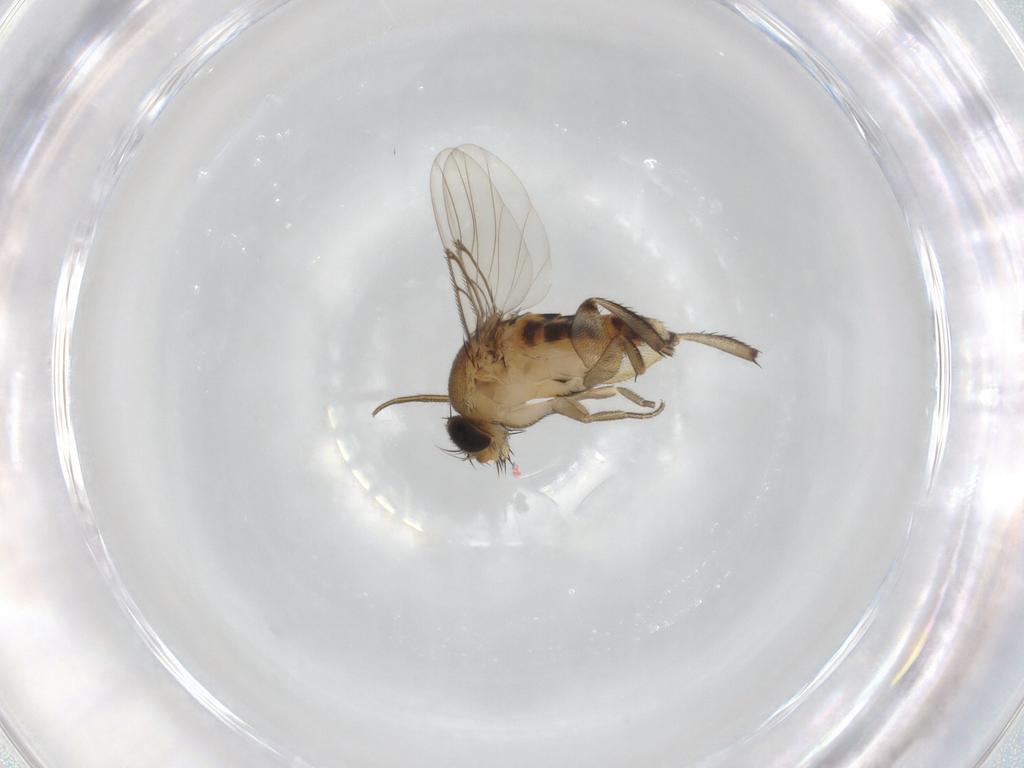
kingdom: Animalia
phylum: Arthropoda
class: Insecta
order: Diptera
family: Phoridae
